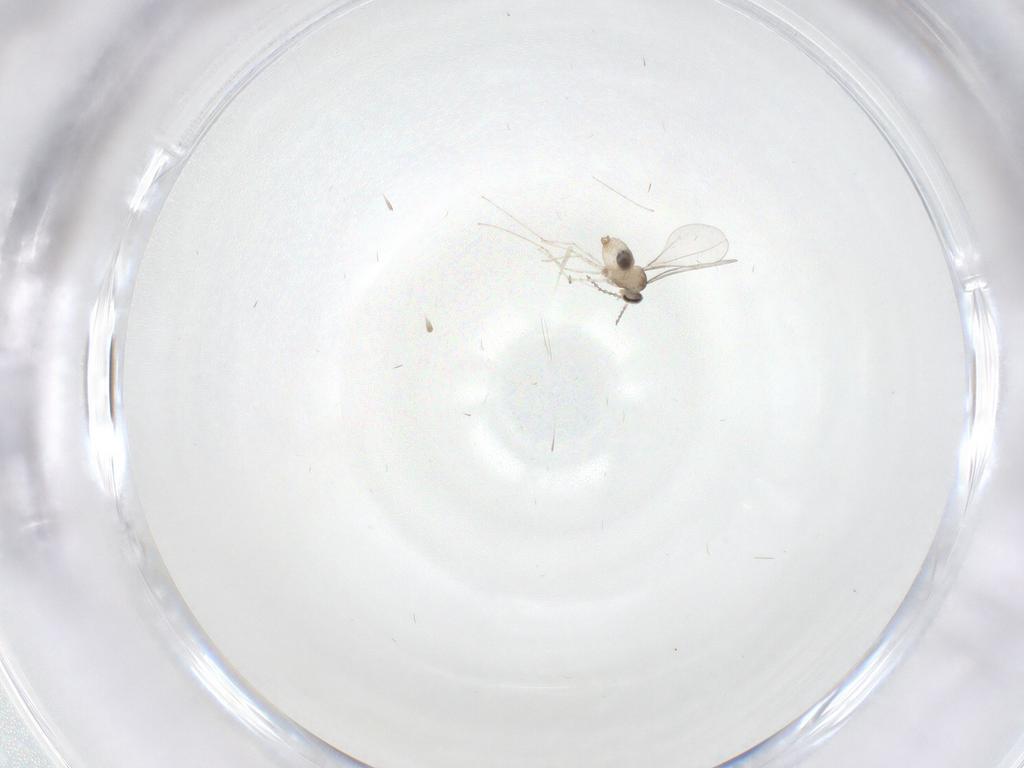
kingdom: Animalia
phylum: Arthropoda
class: Insecta
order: Diptera
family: Cecidomyiidae
